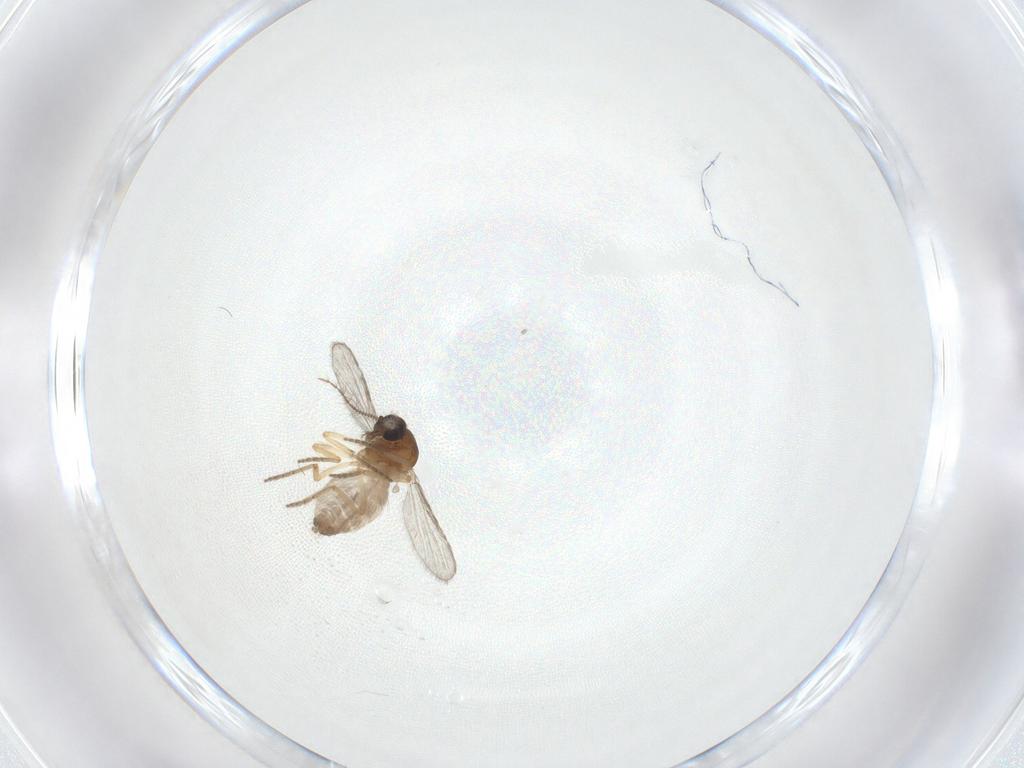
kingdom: Animalia
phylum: Arthropoda
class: Insecta
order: Diptera
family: Ceratopogonidae
